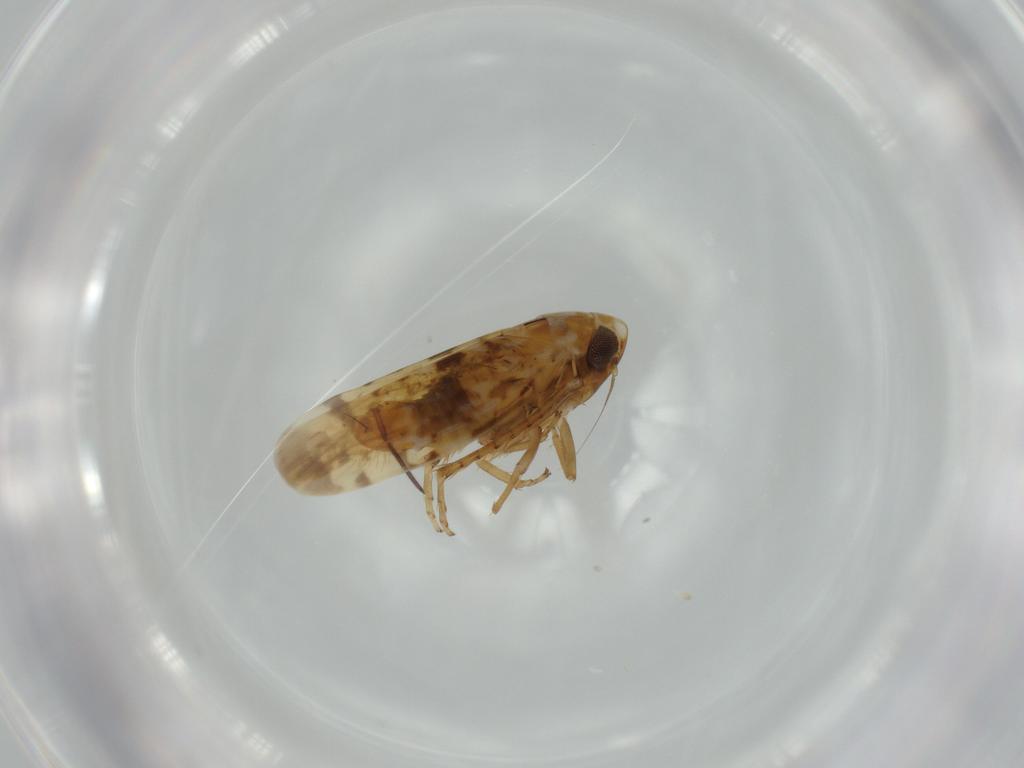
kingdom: Animalia
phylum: Arthropoda
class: Insecta
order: Hemiptera
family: Cicadellidae
